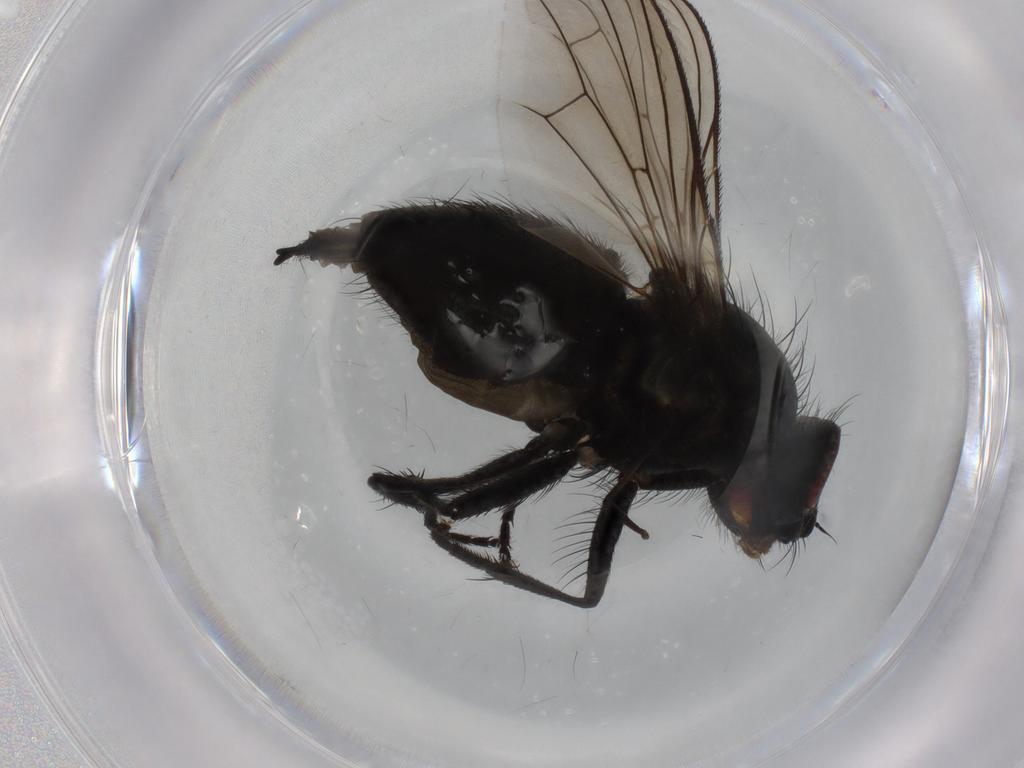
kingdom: Animalia
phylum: Arthropoda
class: Insecta
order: Diptera
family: Muscidae
